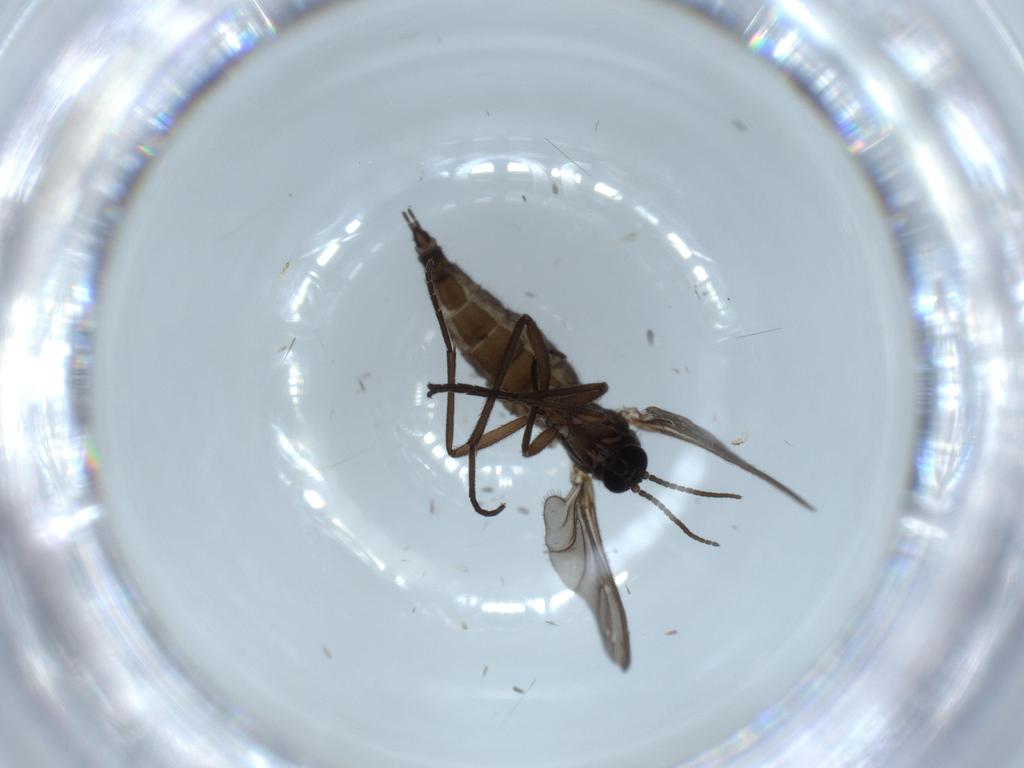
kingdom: Animalia
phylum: Arthropoda
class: Insecta
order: Diptera
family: Sciaridae
